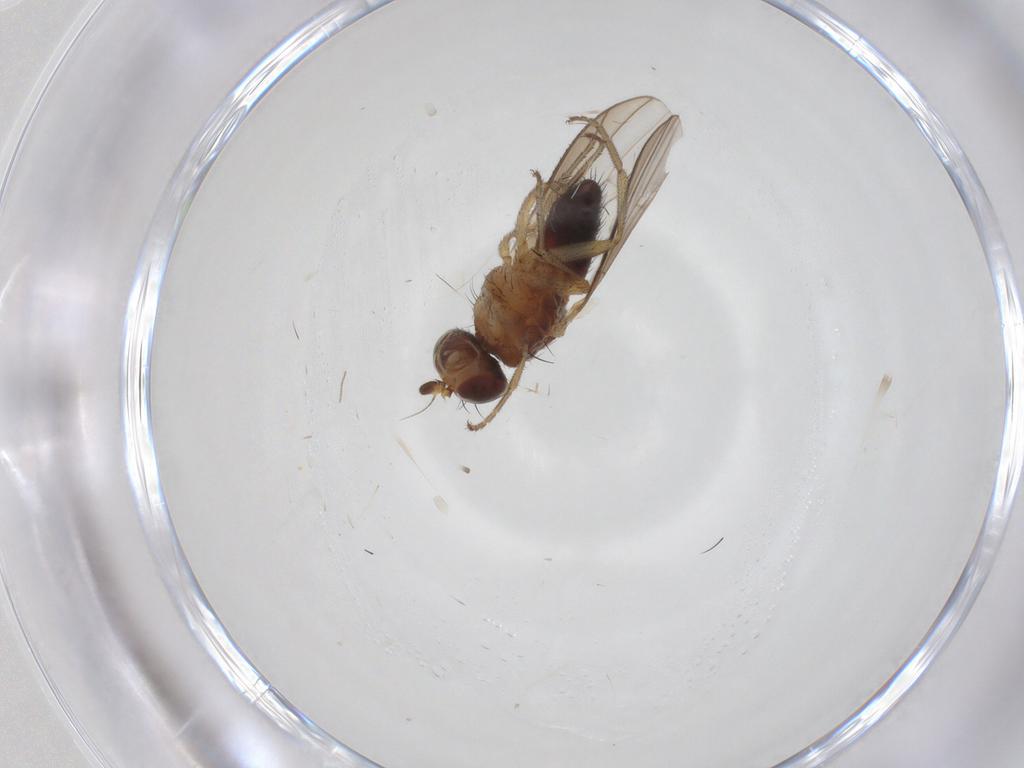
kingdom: Animalia
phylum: Arthropoda
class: Insecta
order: Diptera
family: Heleomyzidae
